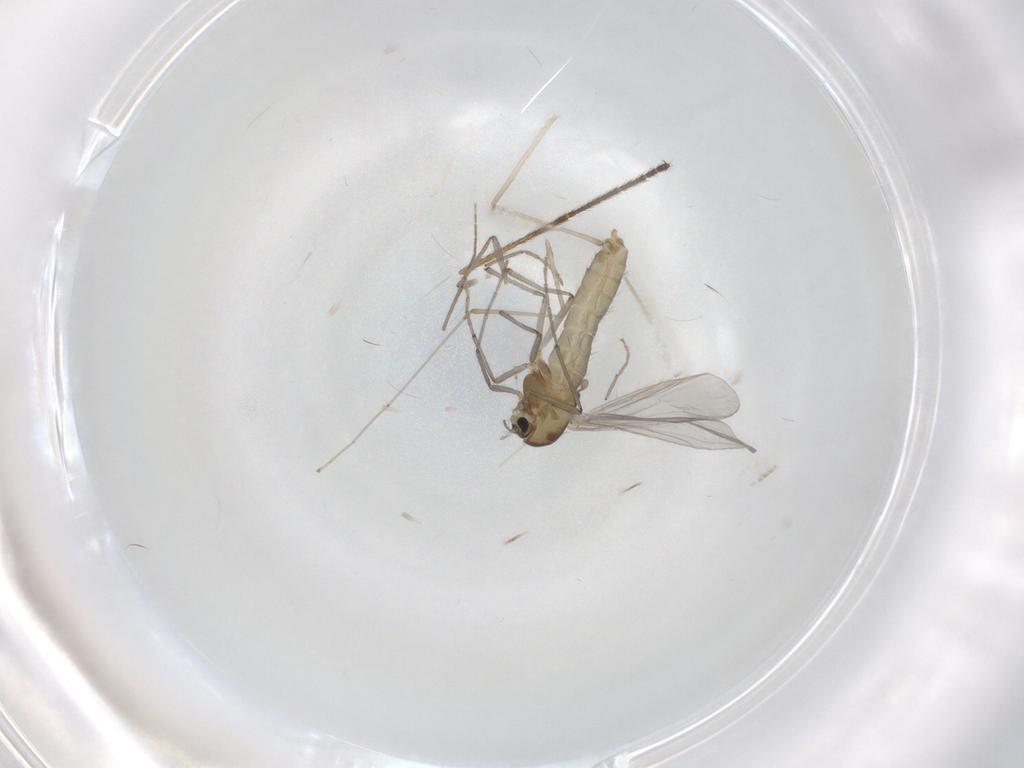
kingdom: Animalia
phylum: Arthropoda
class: Insecta
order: Diptera
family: Chironomidae
